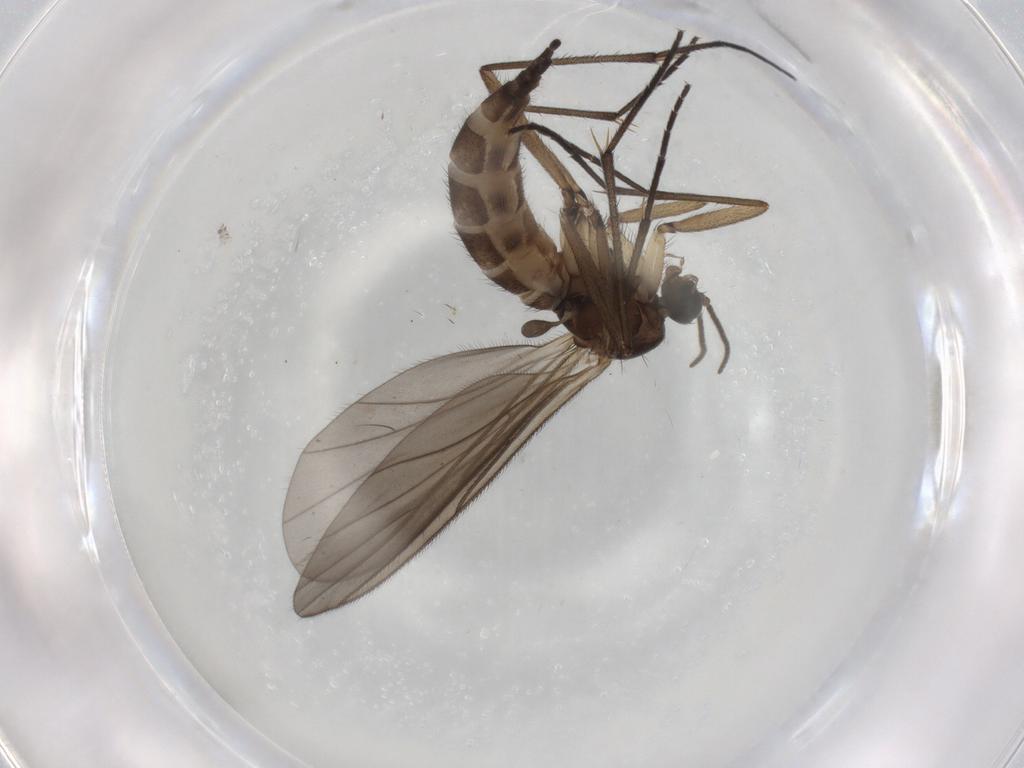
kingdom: Animalia
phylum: Arthropoda
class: Insecta
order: Diptera
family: Sciaridae
